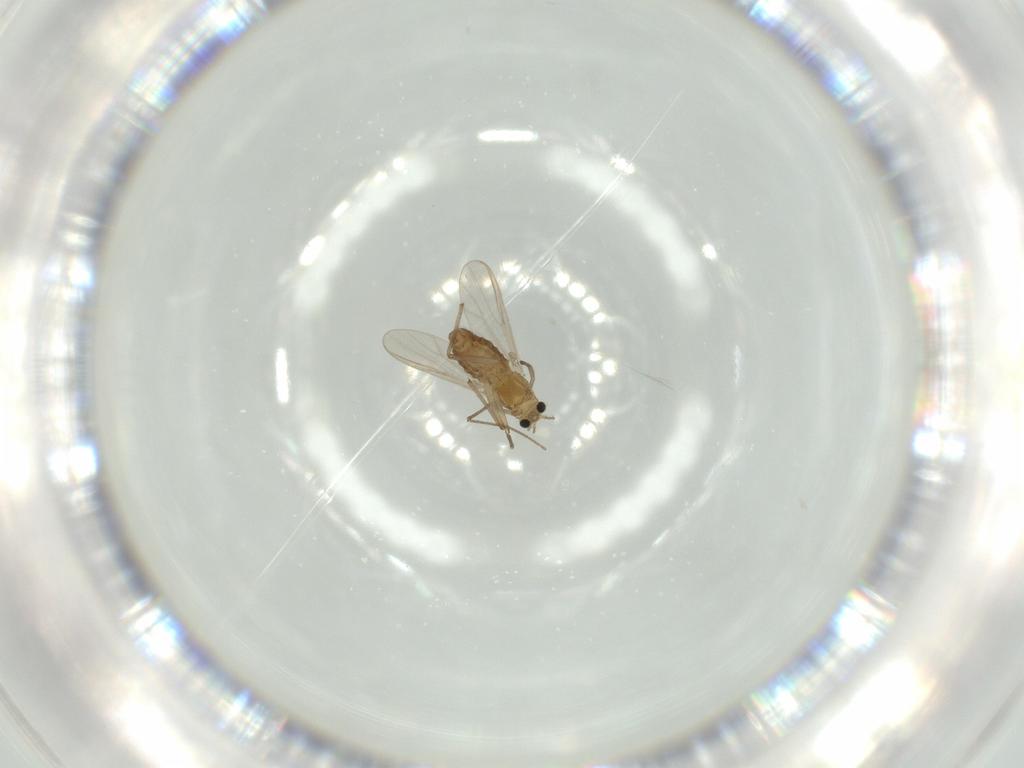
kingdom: Animalia
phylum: Arthropoda
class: Insecta
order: Diptera
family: Chironomidae
